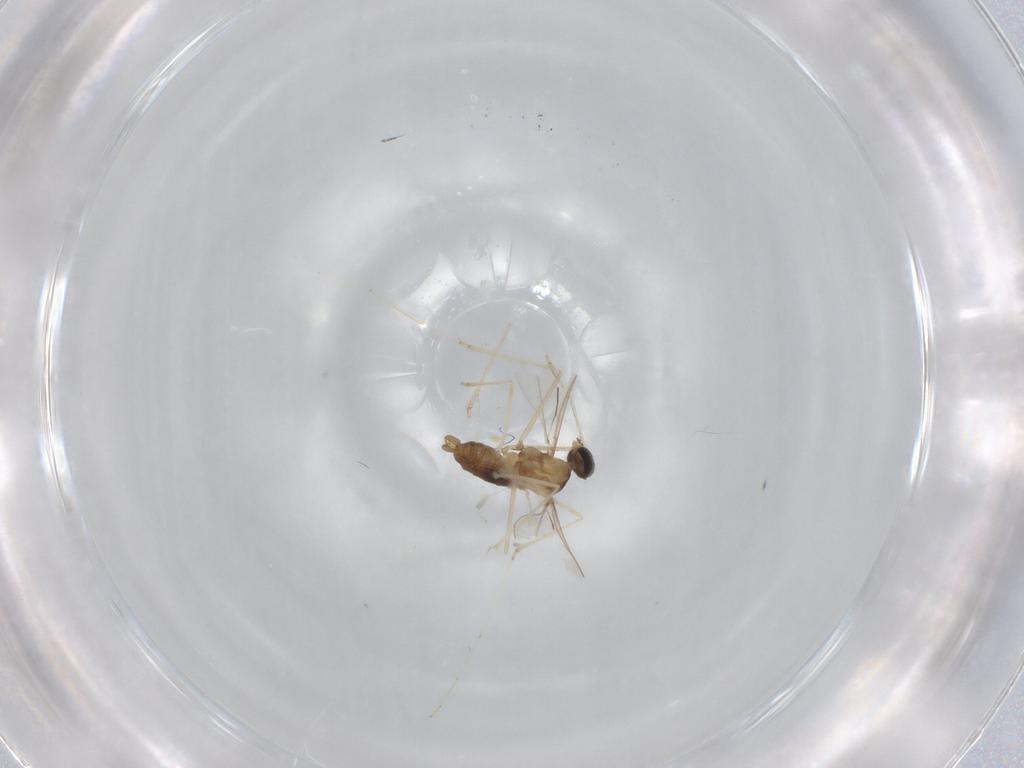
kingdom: Animalia
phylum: Arthropoda
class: Insecta
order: Diptera
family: Cecidomyiidae
